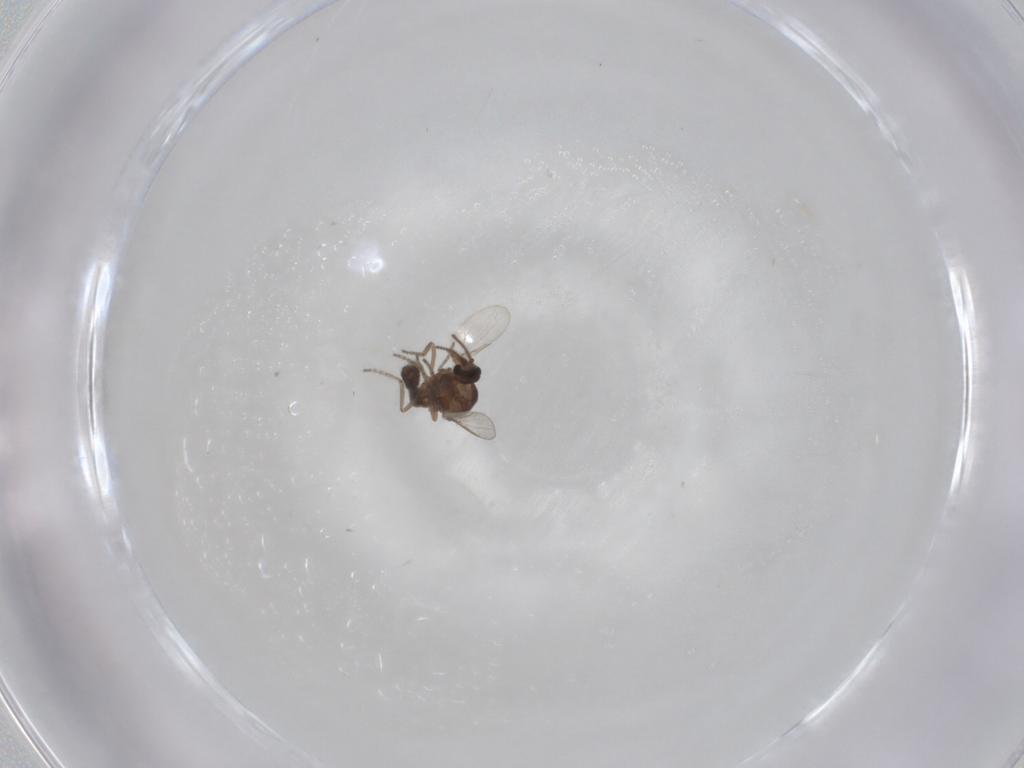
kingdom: Animalia
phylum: Arthropoda
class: Insecta
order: Diptera
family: Ceratopogonidae
